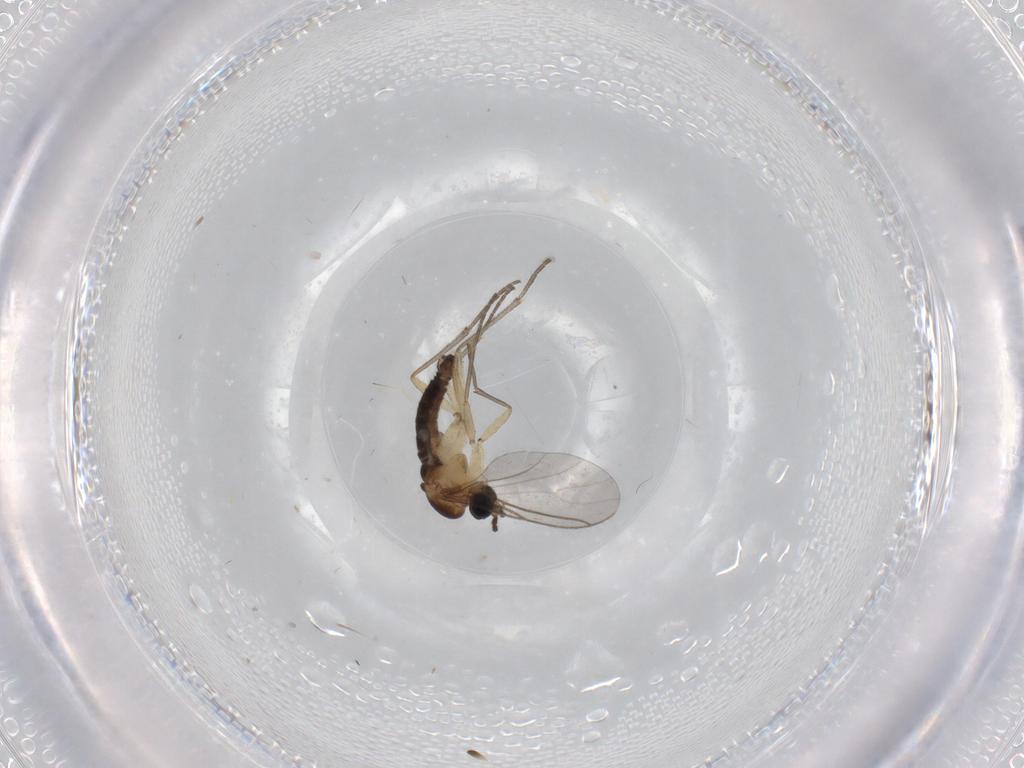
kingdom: Animalia
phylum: Arthropoda
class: Insecta
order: Diptera
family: Sciaridae
